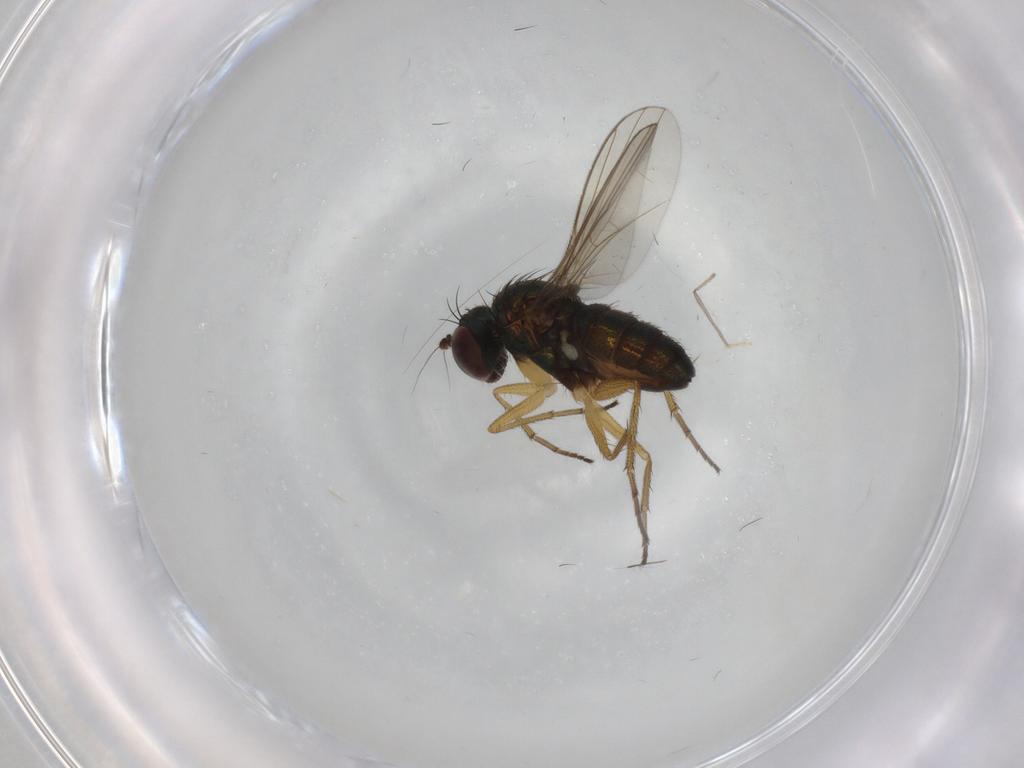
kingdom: Animalia
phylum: Arthropoda
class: Insecta
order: Diptera
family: Dolichopodidae
